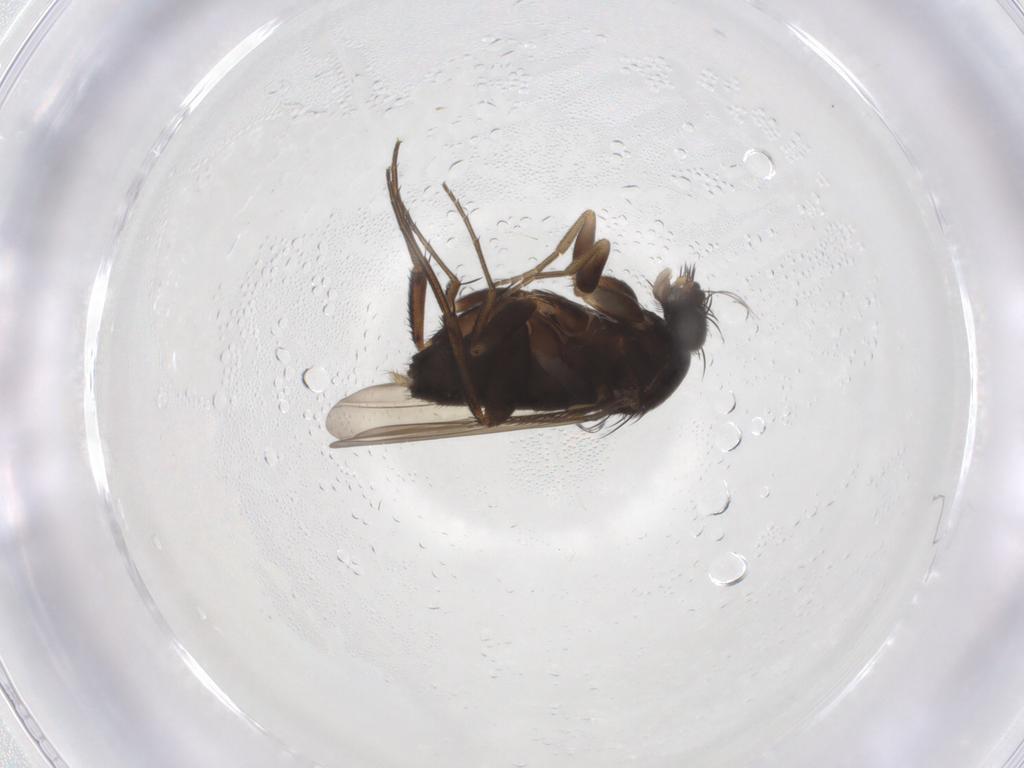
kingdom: Animalia
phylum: Arthropoda
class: Insecta
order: Diptera
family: Phoridae
